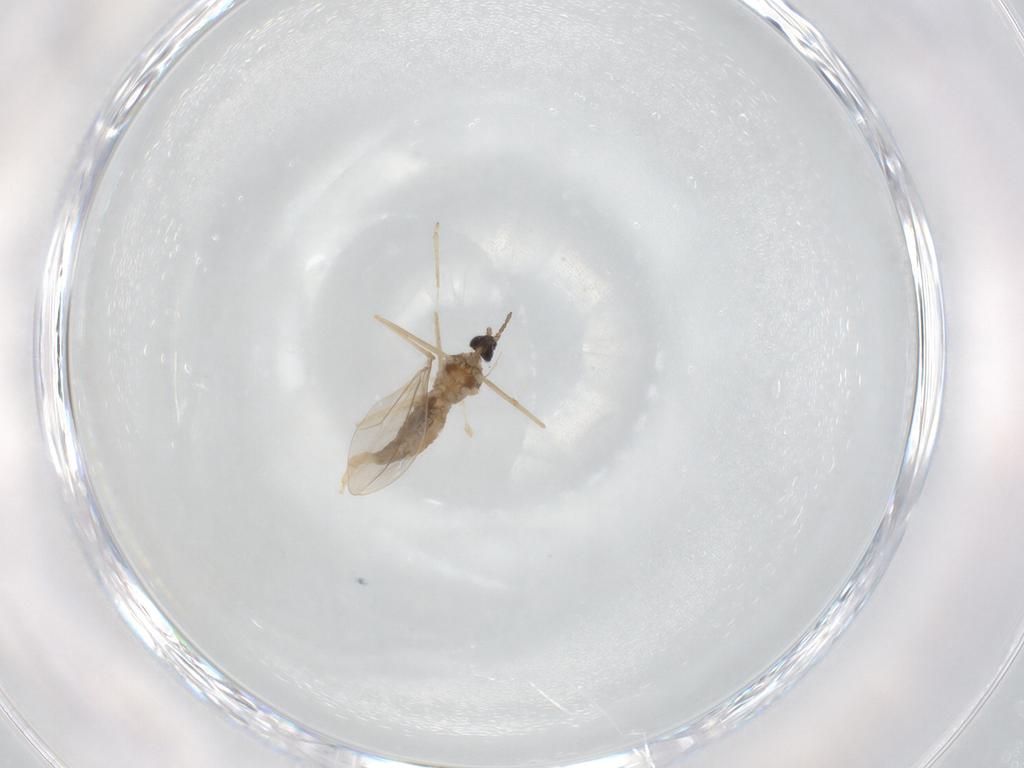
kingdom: Animalia
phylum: Arthropoda
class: Insecta
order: Diptera
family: Cecidomyiidae
